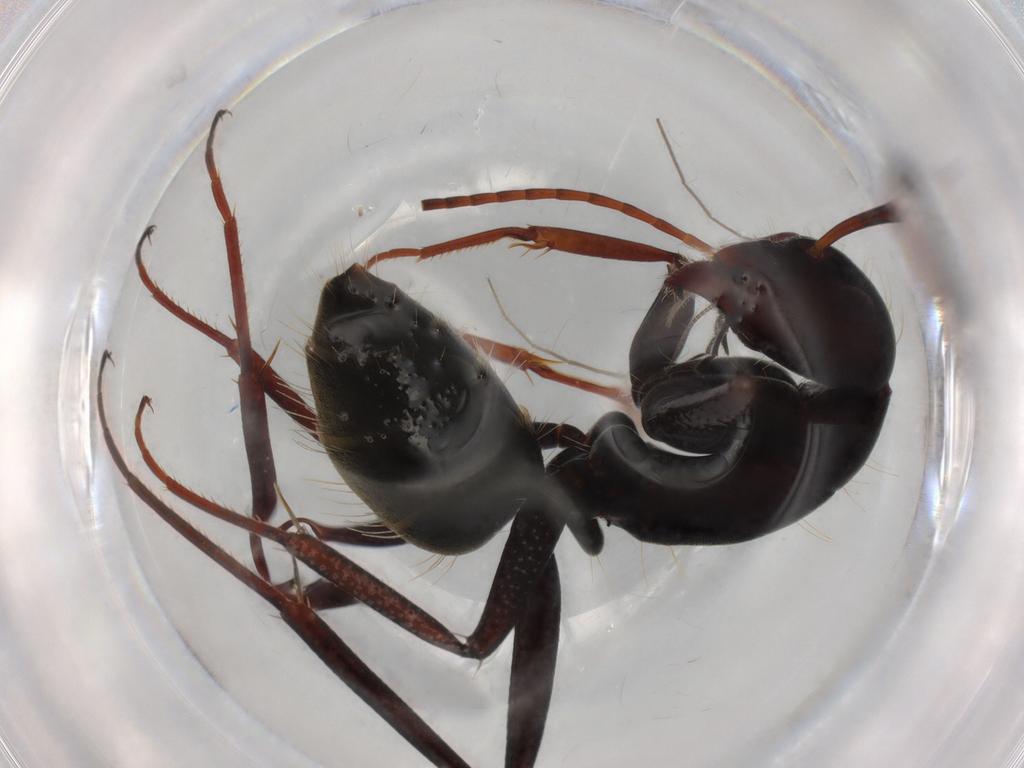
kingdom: Animalia
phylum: Arthropoda
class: Insecta
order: Hymenoptera
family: Formicidae
